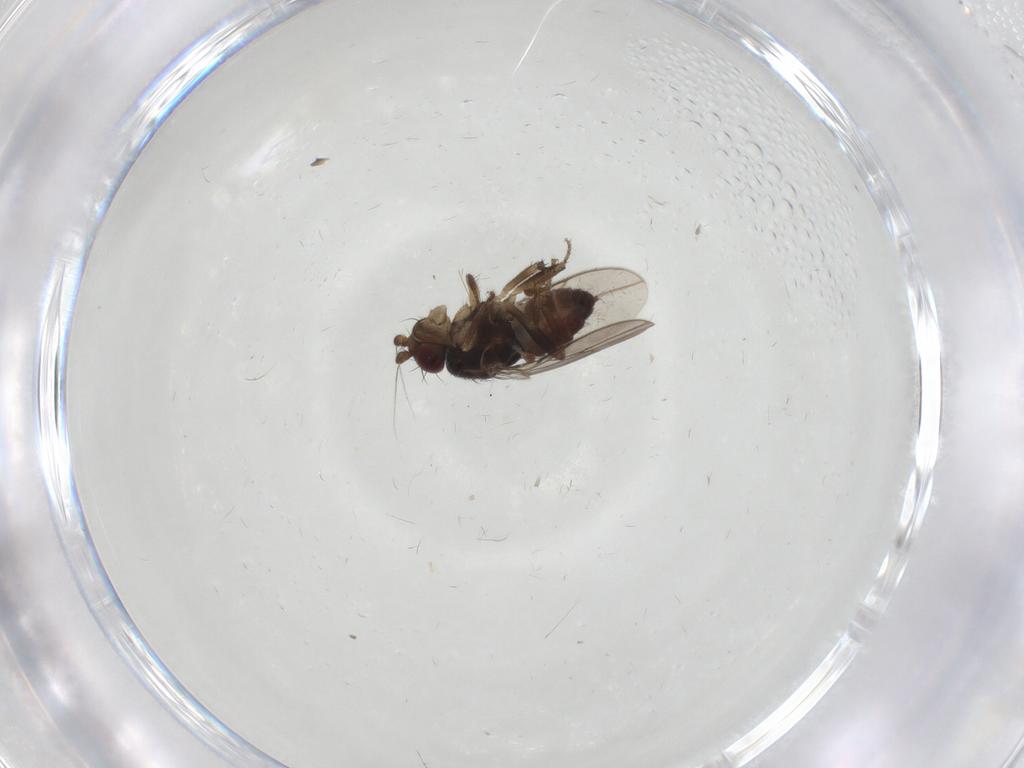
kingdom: Animalia
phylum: Arthropoda
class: Insecta
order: Diptera
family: Sphaeroceridae
